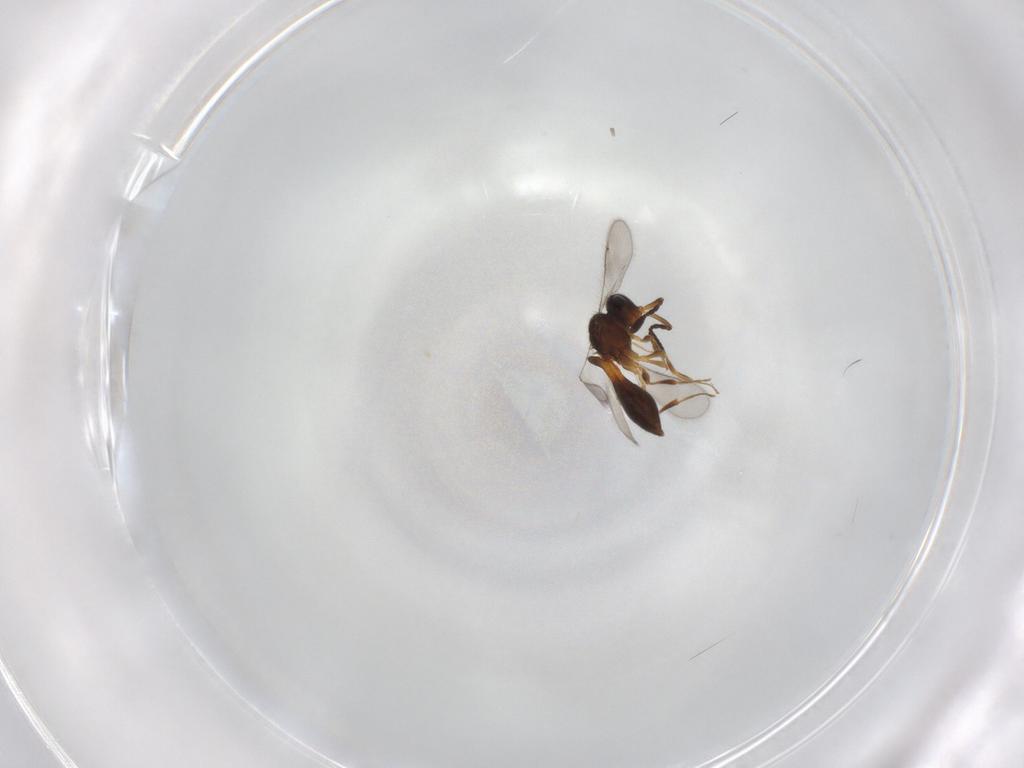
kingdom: Animalia
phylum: Arthropoda
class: Insecta
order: Hymenoptera
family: Scelionidae
